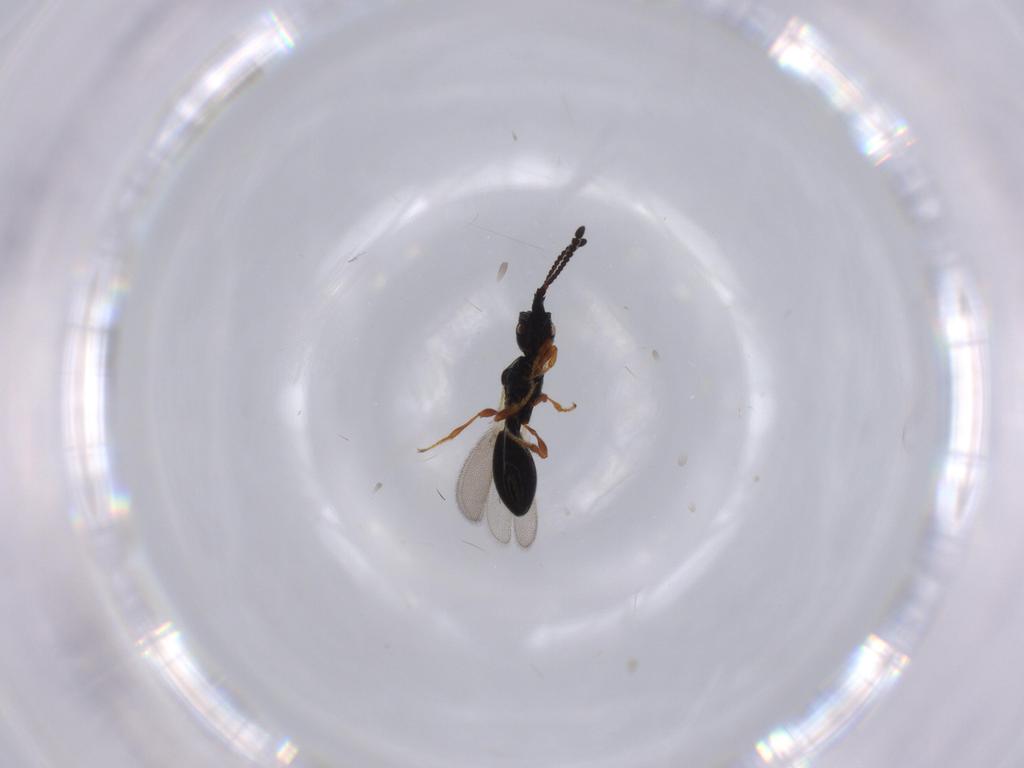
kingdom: Animalia
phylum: Arthropoda
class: Insecta
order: Hymenoptera
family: Diapriidae
